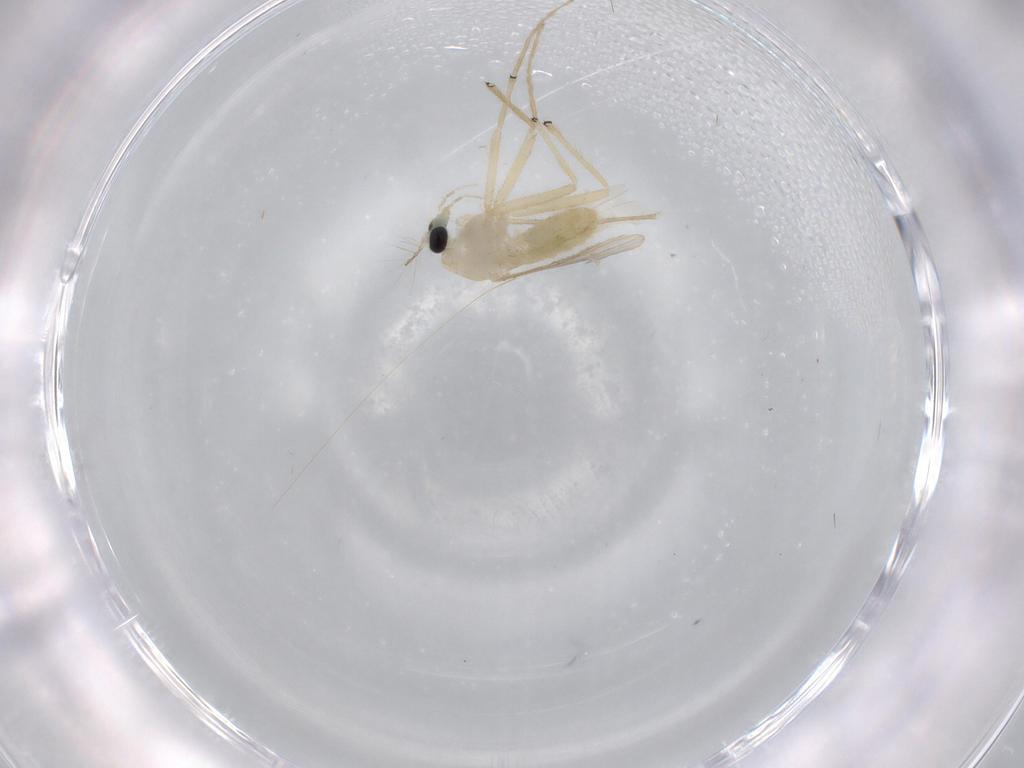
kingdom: Animalia
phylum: Arthropoda
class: Insecta
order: Diptera
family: Chironomidae
